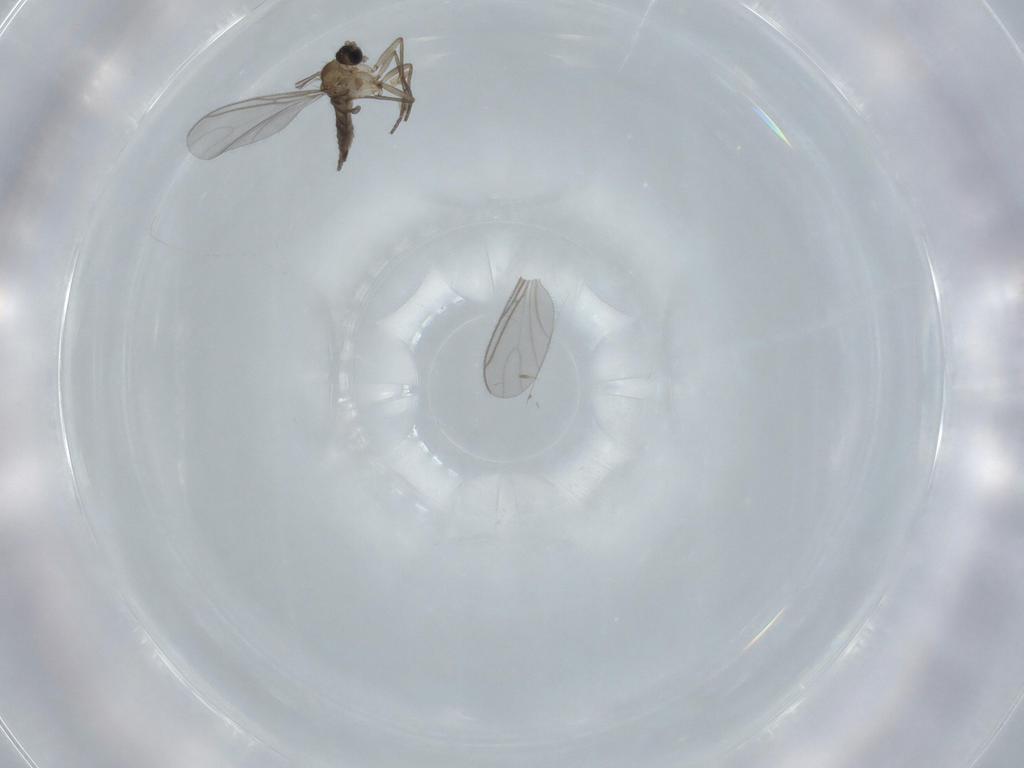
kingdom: Animalia
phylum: Arthropoda
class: Insecta
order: Diptera
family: Sciaridae
